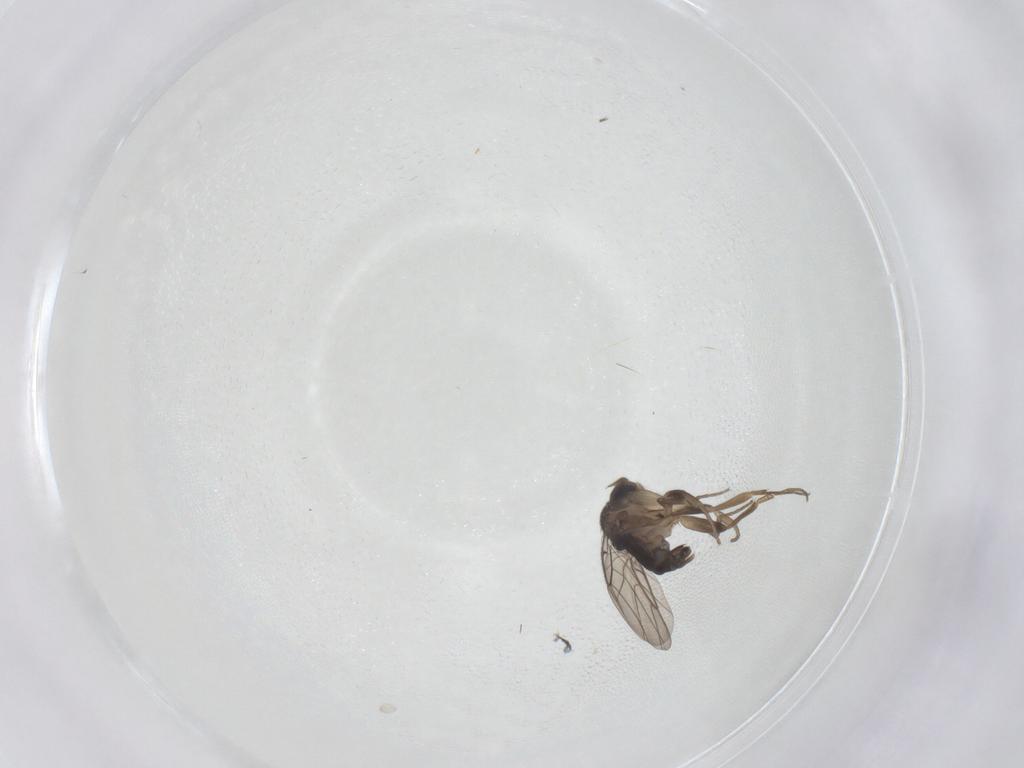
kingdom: Animalia
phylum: Arthropoda
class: Insecta
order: Diptera
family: Phoridae
